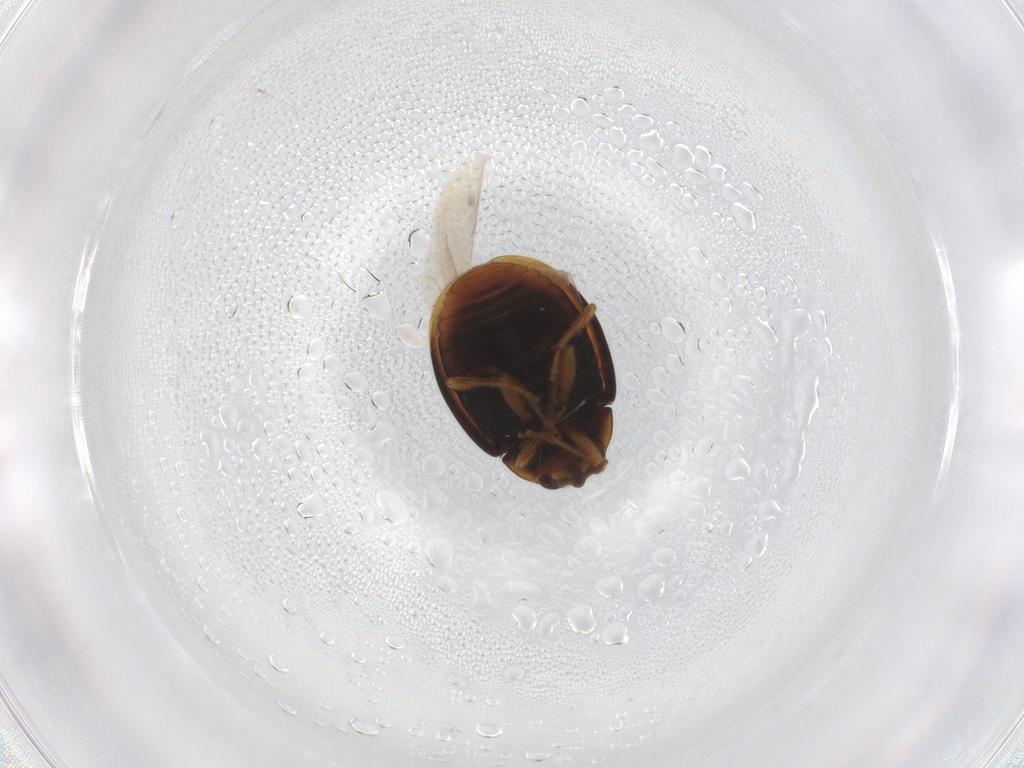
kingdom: Animalia
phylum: Arthropoda
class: Insecta
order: Coleoptera
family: Coccinellidae
